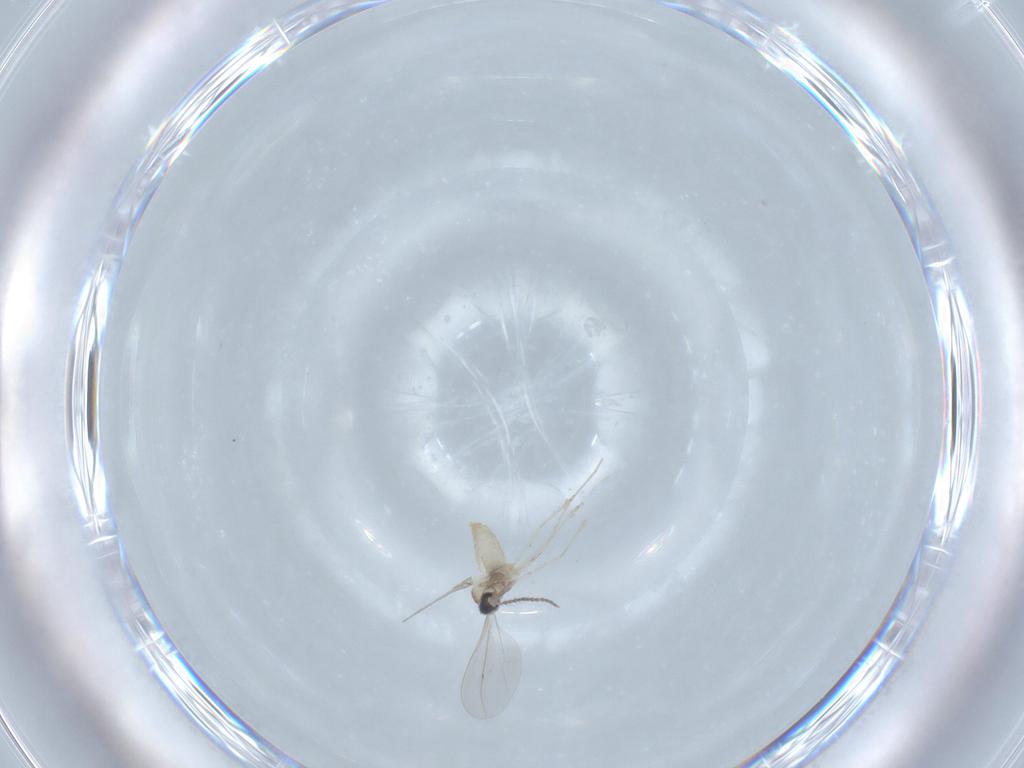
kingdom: Animalia
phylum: Arthropoda
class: Insecta
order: Diptera
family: Cecidomyiidae
